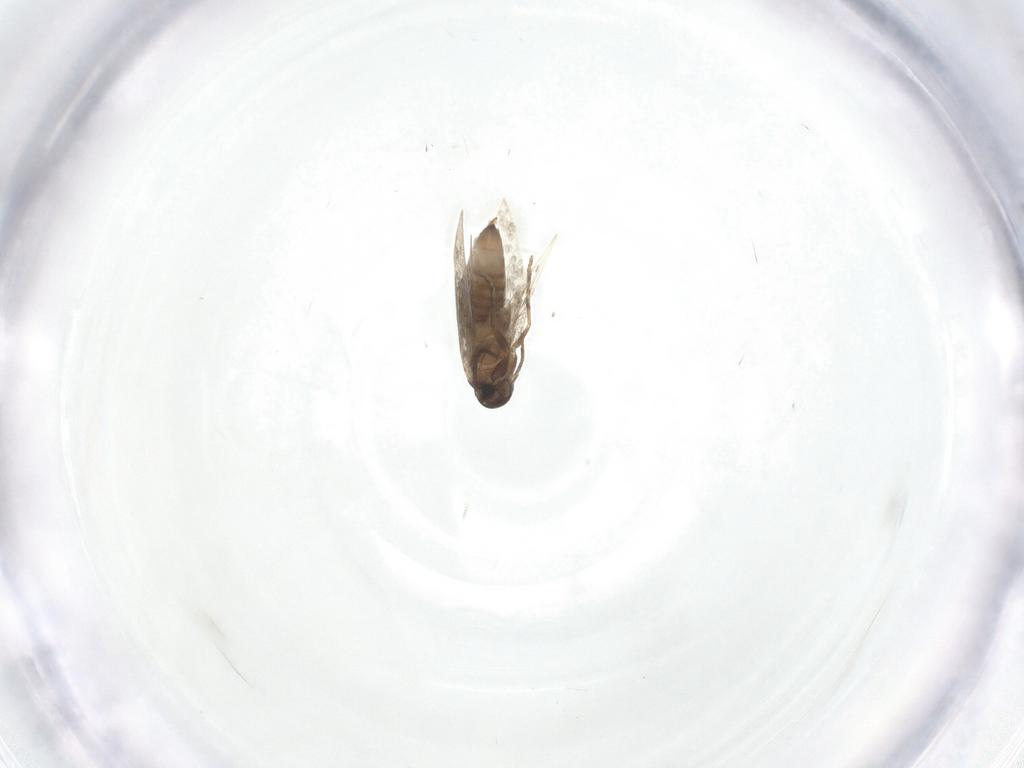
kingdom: Animalia
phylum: Arthropoda
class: Insecta
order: Lepidoptera
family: Heliozelidae
